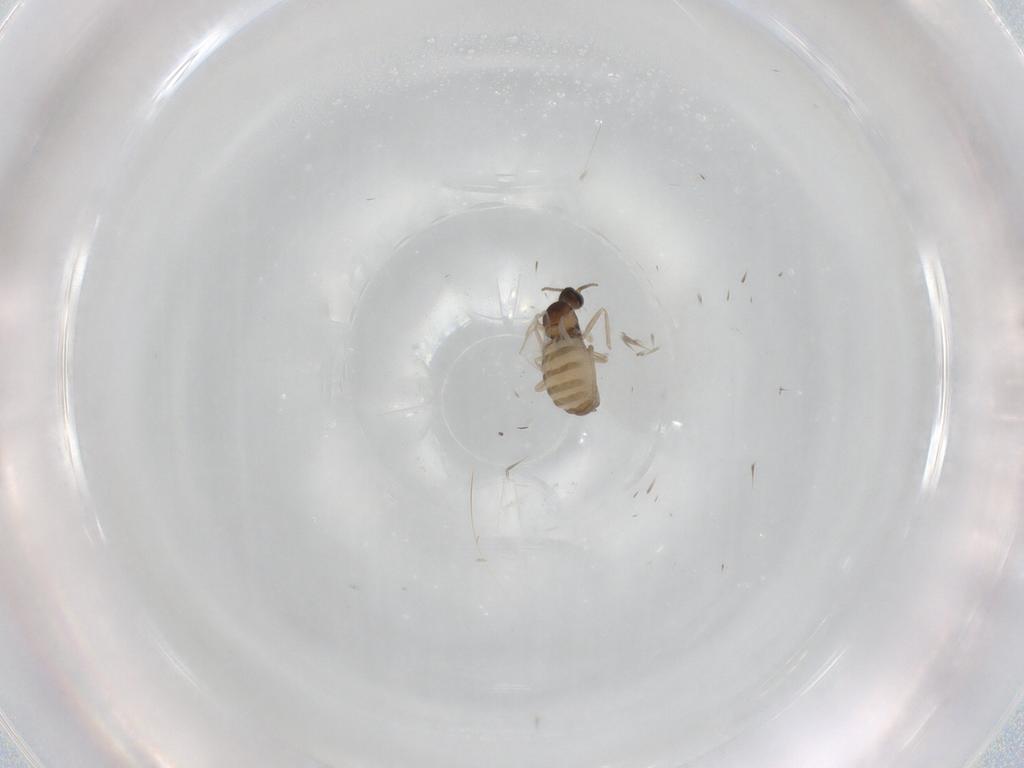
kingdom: Animalia
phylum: Arthropoda
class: Insecta
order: Diptera
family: Cecidomyiidae
